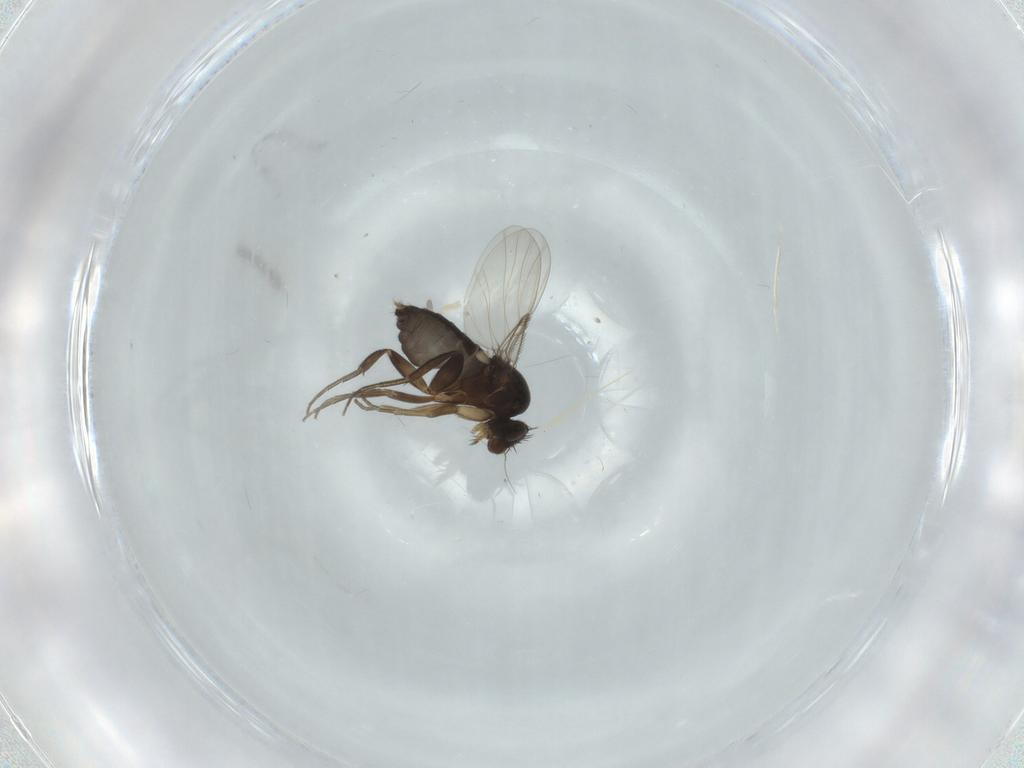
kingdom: Animalia
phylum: Arthropoda
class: Insecta
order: Diptera
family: Phoridae
